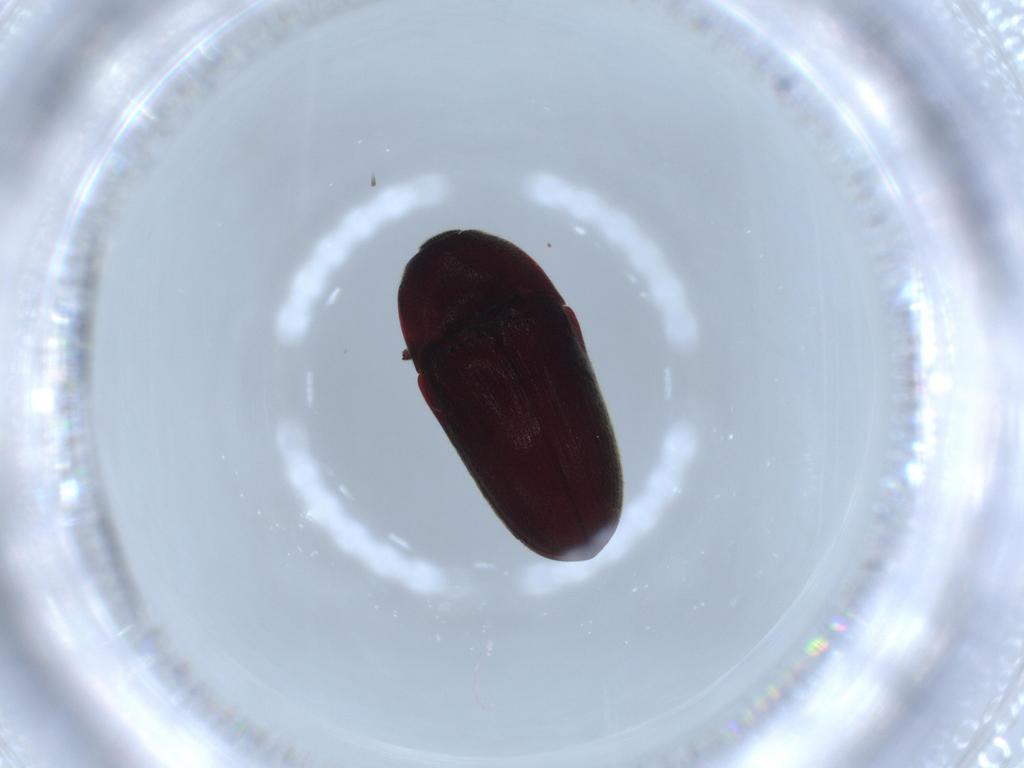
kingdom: Animalia
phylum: Arthropoda
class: Insecta
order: Coleoptera
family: Throscidae
